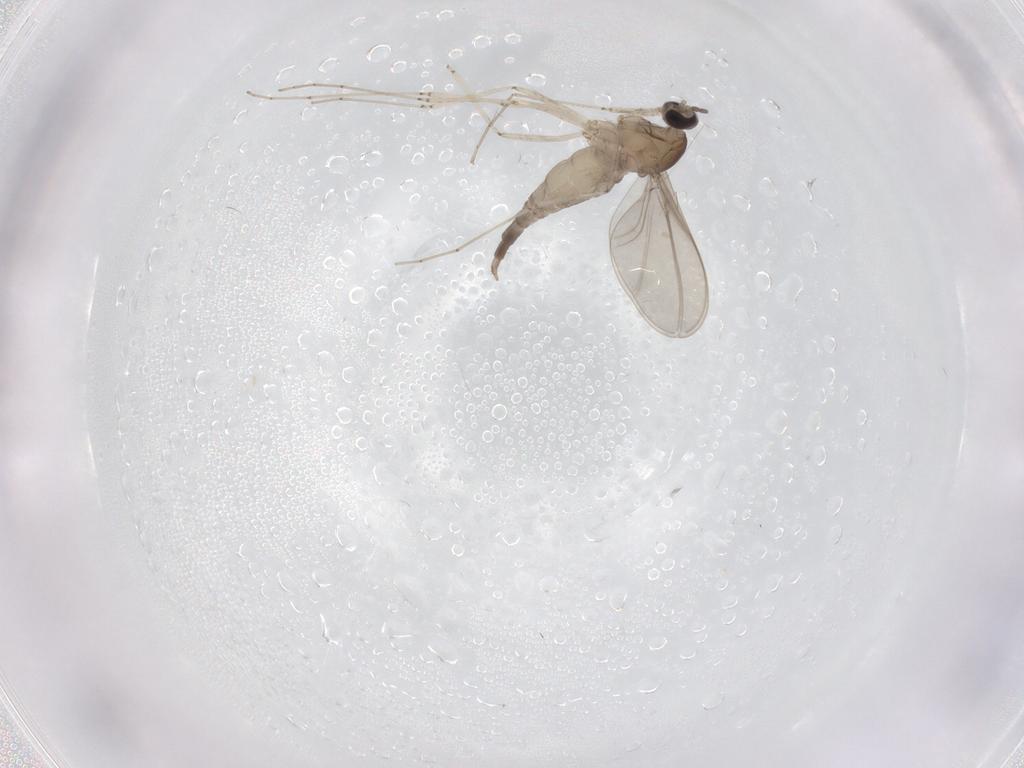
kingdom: Animalia
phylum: Arthropoda
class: Insecta
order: Diptera
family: Cecidomyiidae
